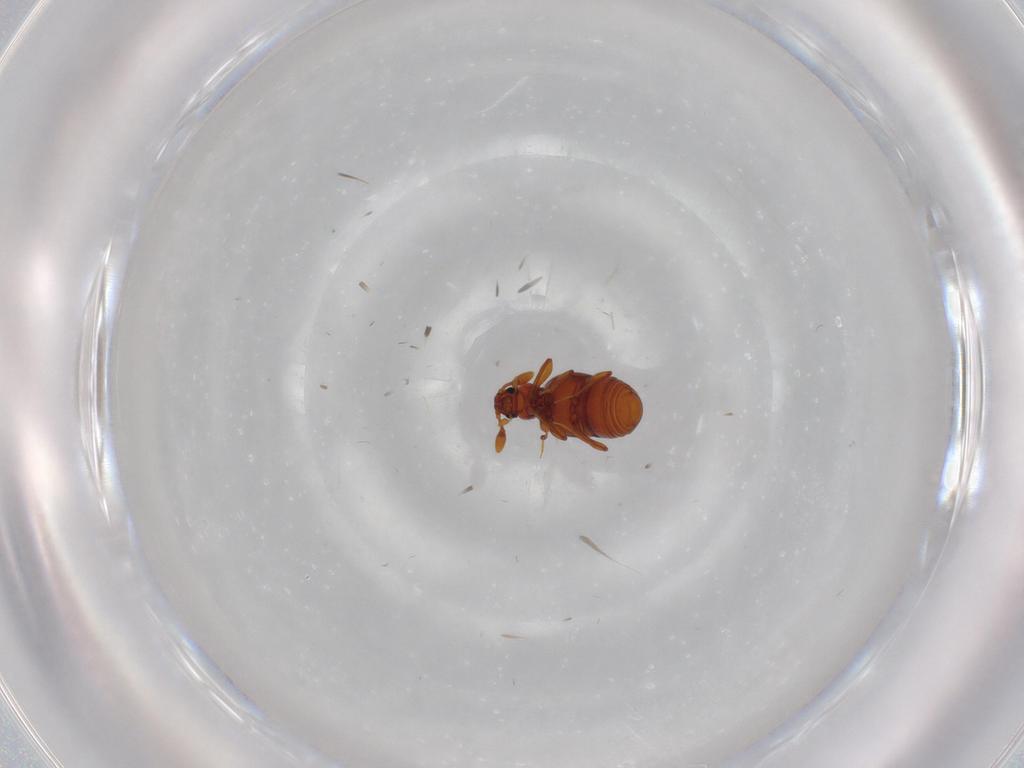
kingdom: Animalia
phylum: Arthropoda
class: Insecta
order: Coleoptera
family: Staphylinidae
